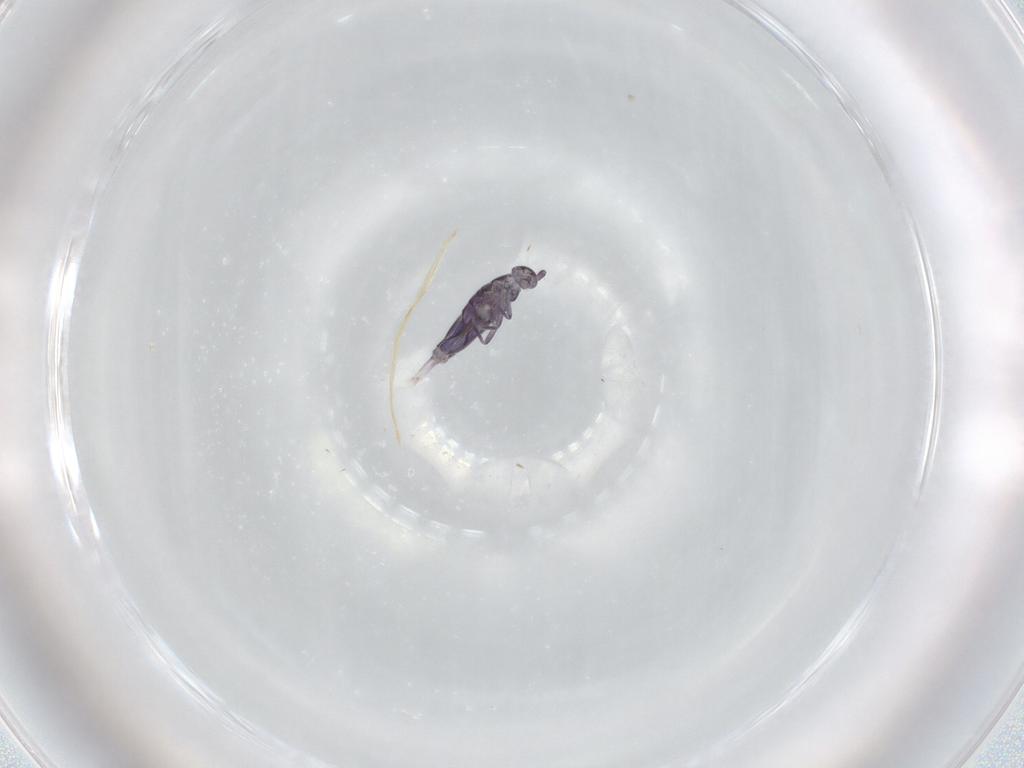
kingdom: Animalia
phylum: Arthropoda
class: Collembola
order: Entomobryomorpha
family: Entomobryidae
